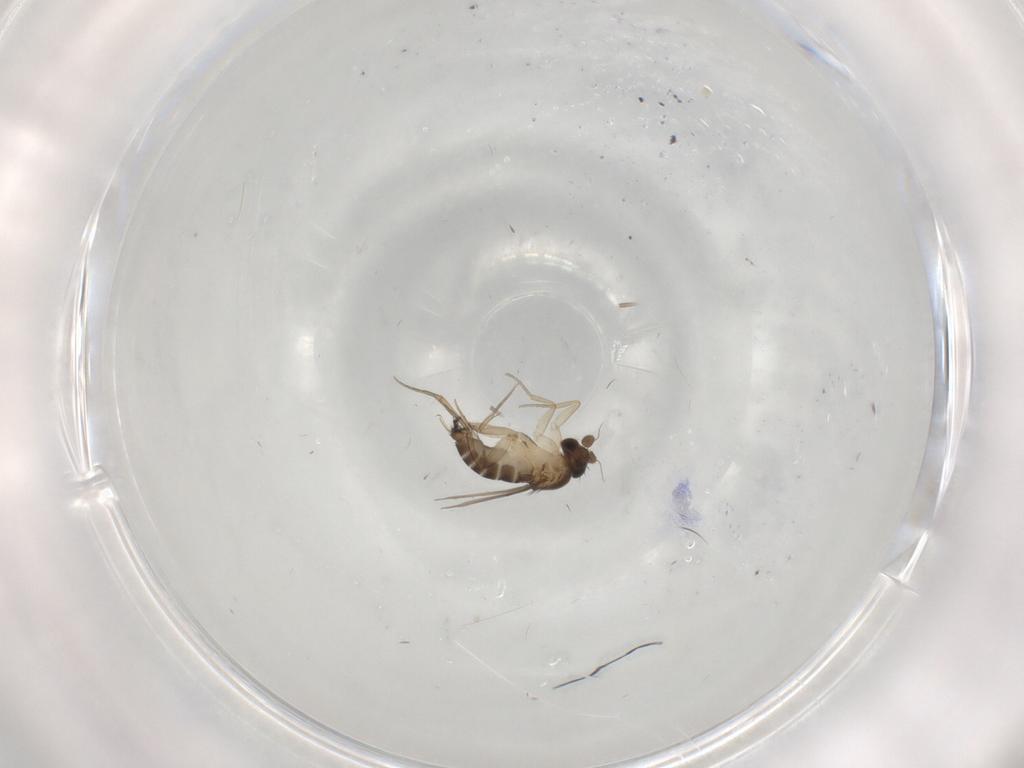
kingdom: Animalia
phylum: Arthropoda
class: Insecta
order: Diptera
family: Phoridae
